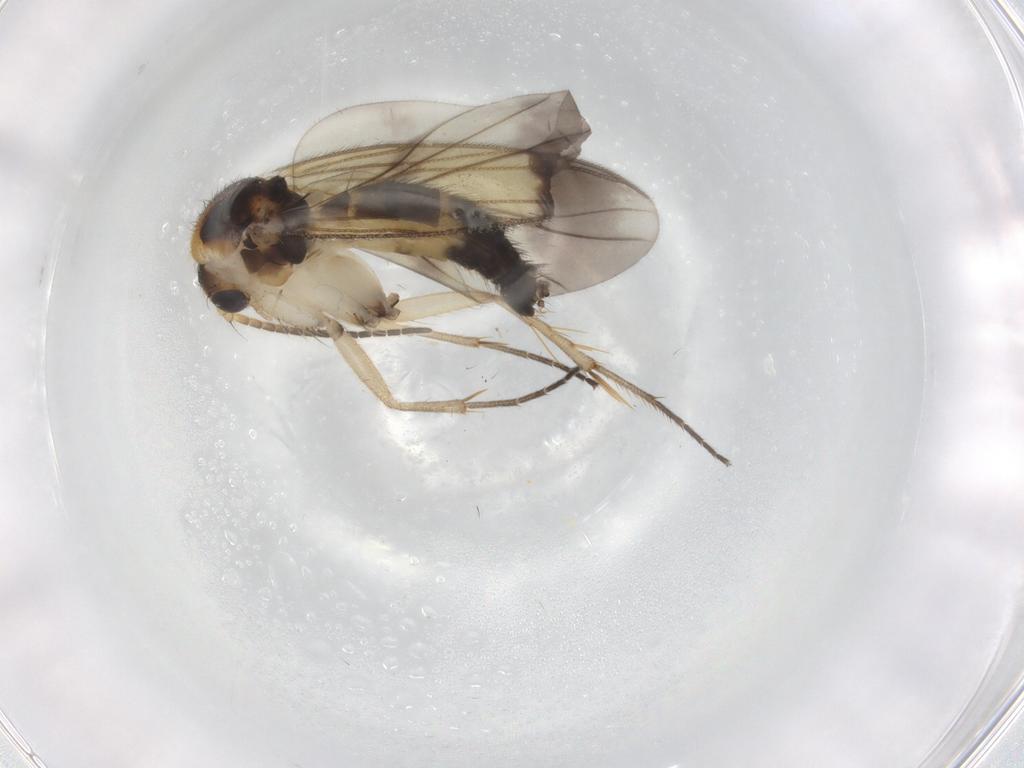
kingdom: Animalia
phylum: Arthropoda
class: Insecta
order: Diptera
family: Mycetophilidae
